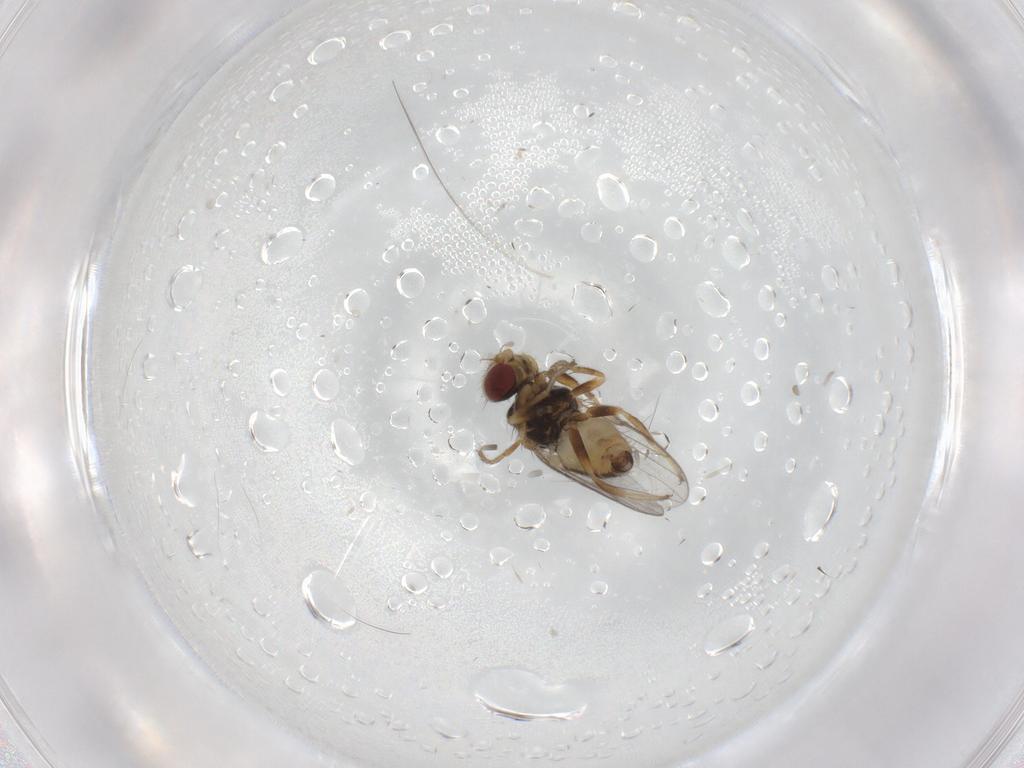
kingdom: Animalia
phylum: Arthropoda
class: Insecta
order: Diptera
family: Chloropidae
